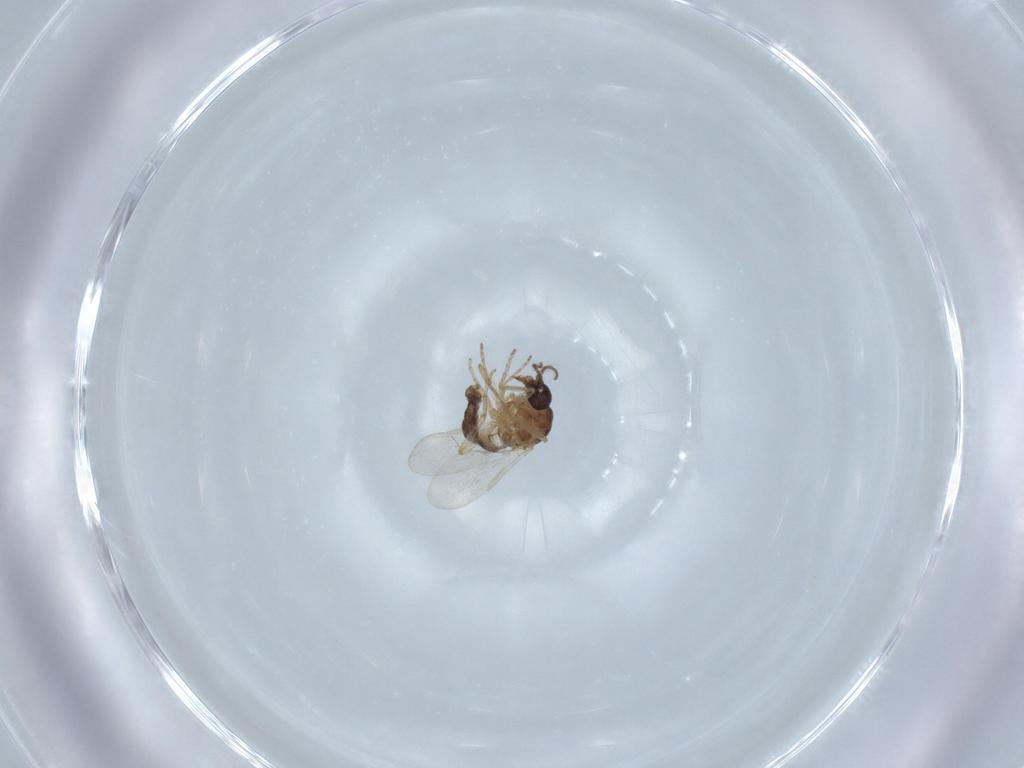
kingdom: Animalia
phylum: Arthropoda
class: Insecta
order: Diptera
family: Ceratopogonidae
